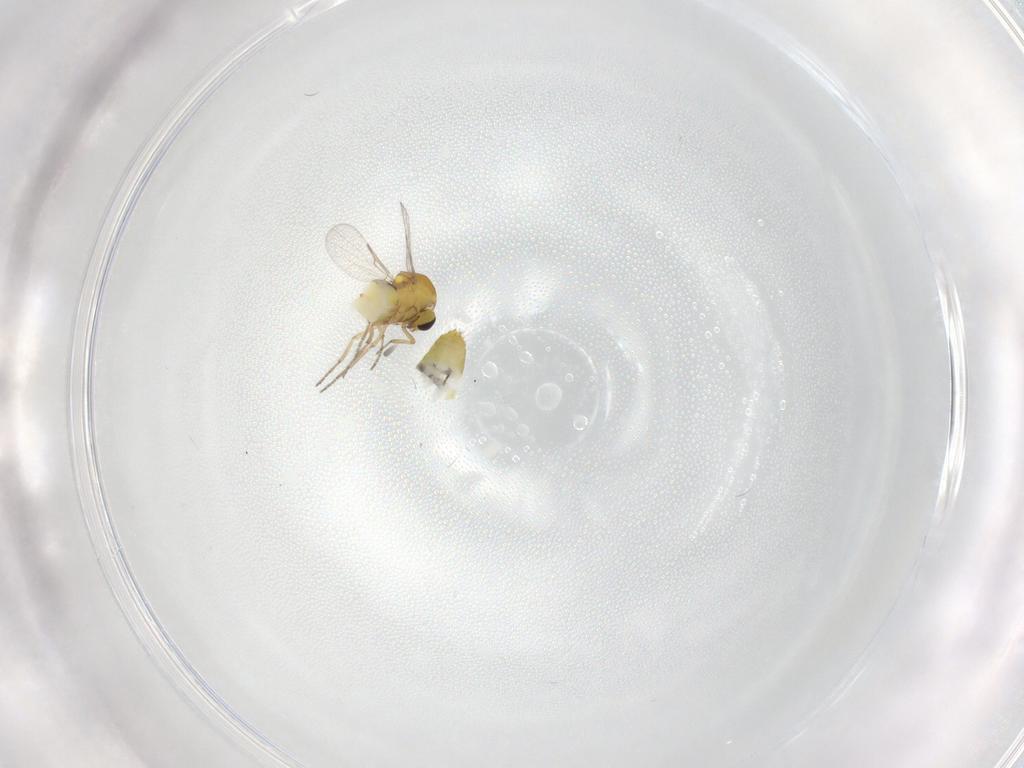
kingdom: Animalia
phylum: Arthropoda
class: Insecta
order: Diptera
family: Ceratopogonidae
